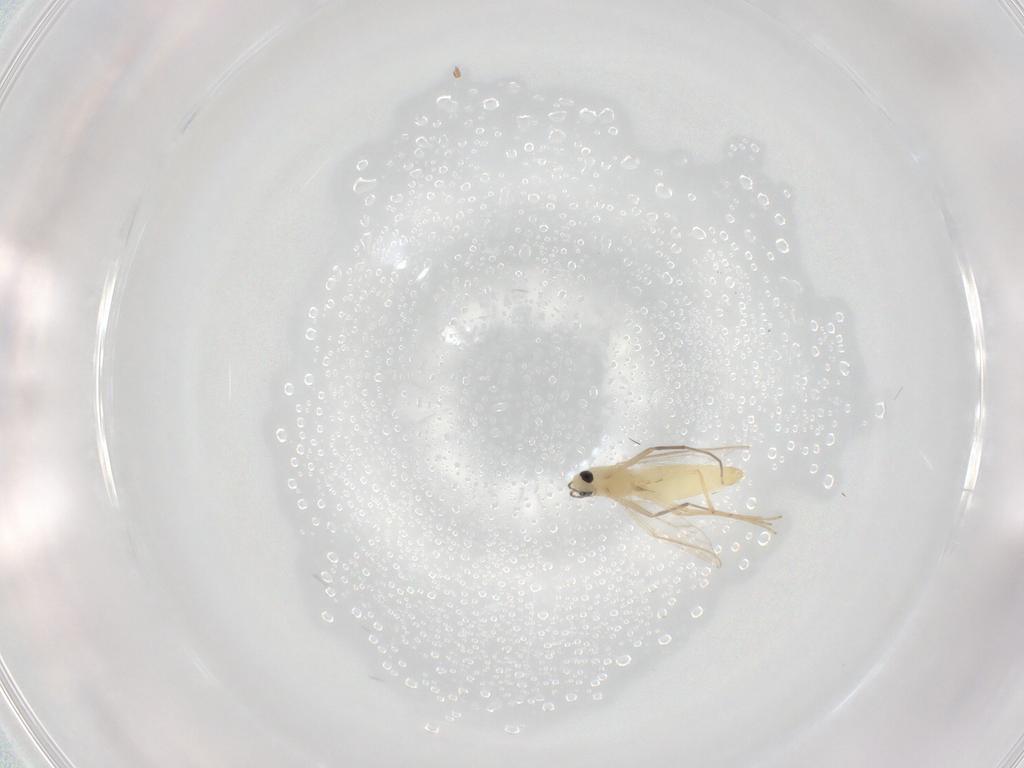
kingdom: Animalia
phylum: Arthropoda
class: Insecta
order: Diptera
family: Chironomidae
